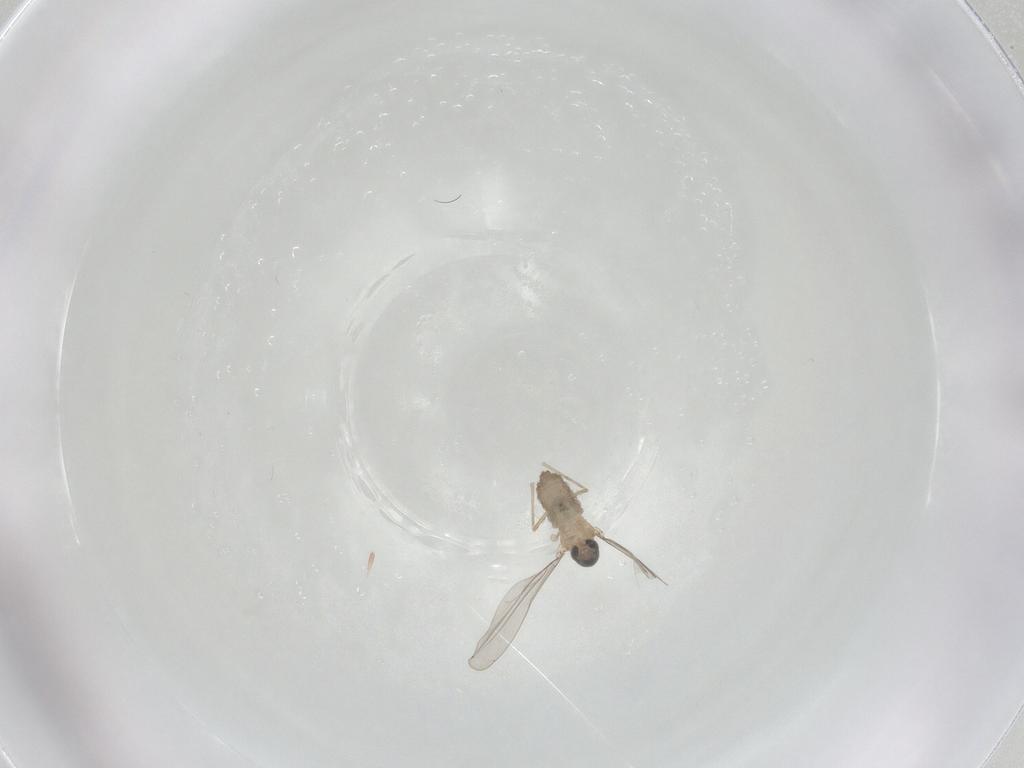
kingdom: Animalia
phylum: Arthropoda
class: Insecta
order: Diptera
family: Cecidomyiidae
